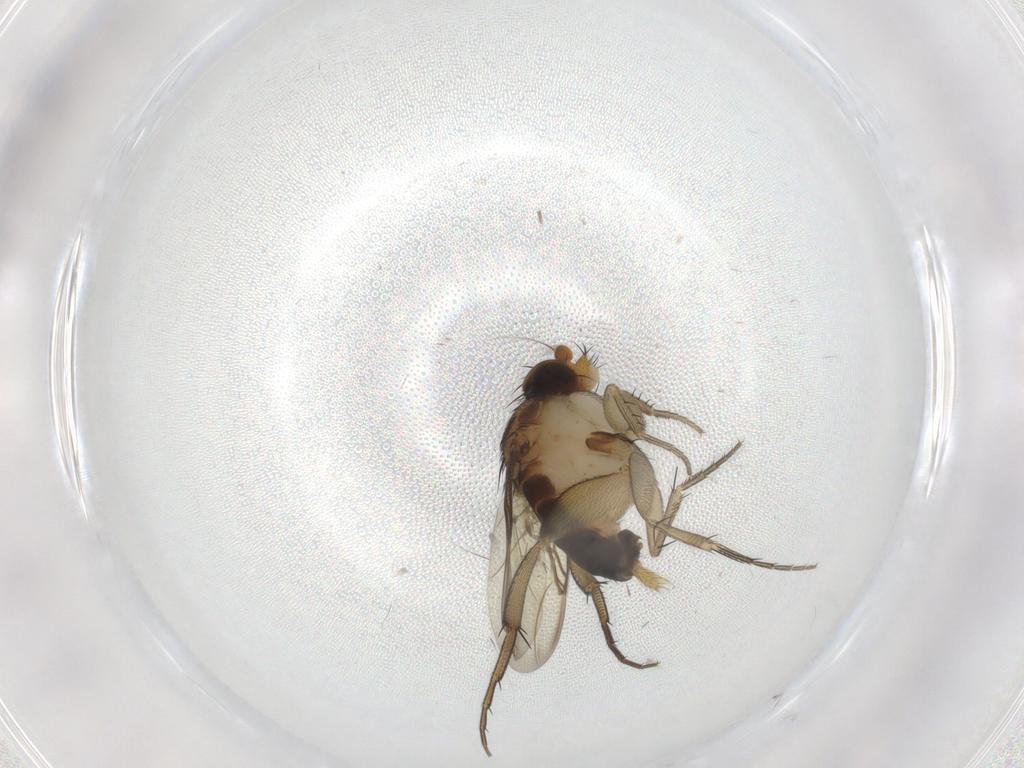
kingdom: Animalia
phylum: Arthropoda
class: Insecta
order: Diptera
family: Phoridae
